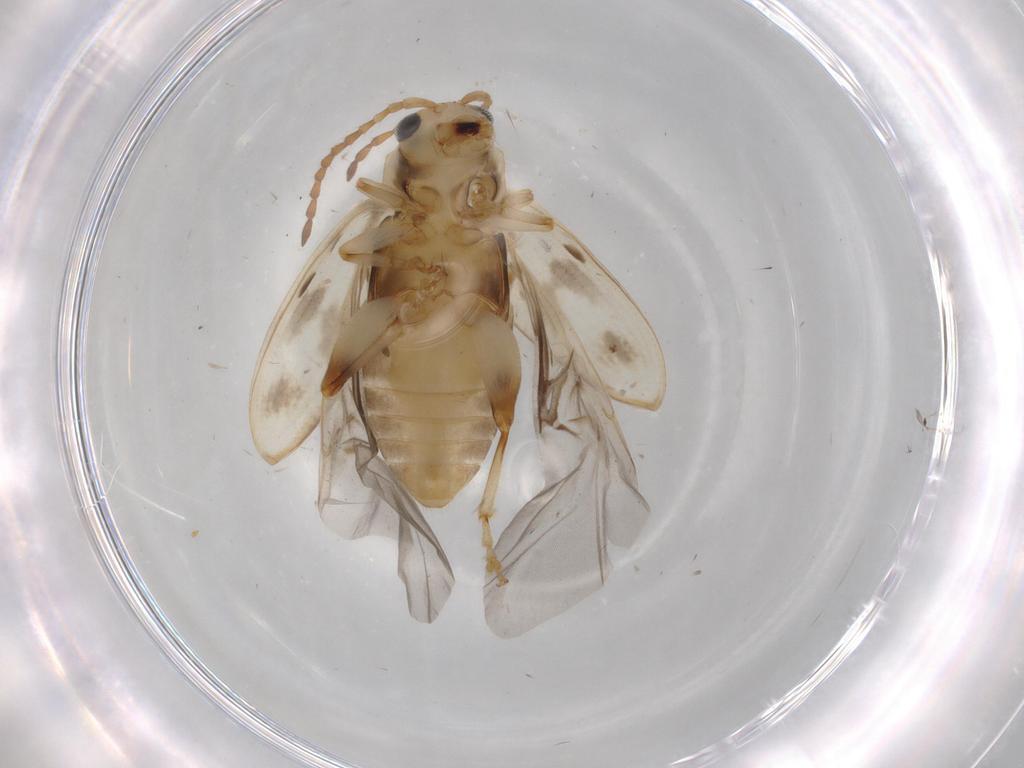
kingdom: Animalia
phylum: Arthropoda
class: Insecta
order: Coleoptera
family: Chrysomelidae
